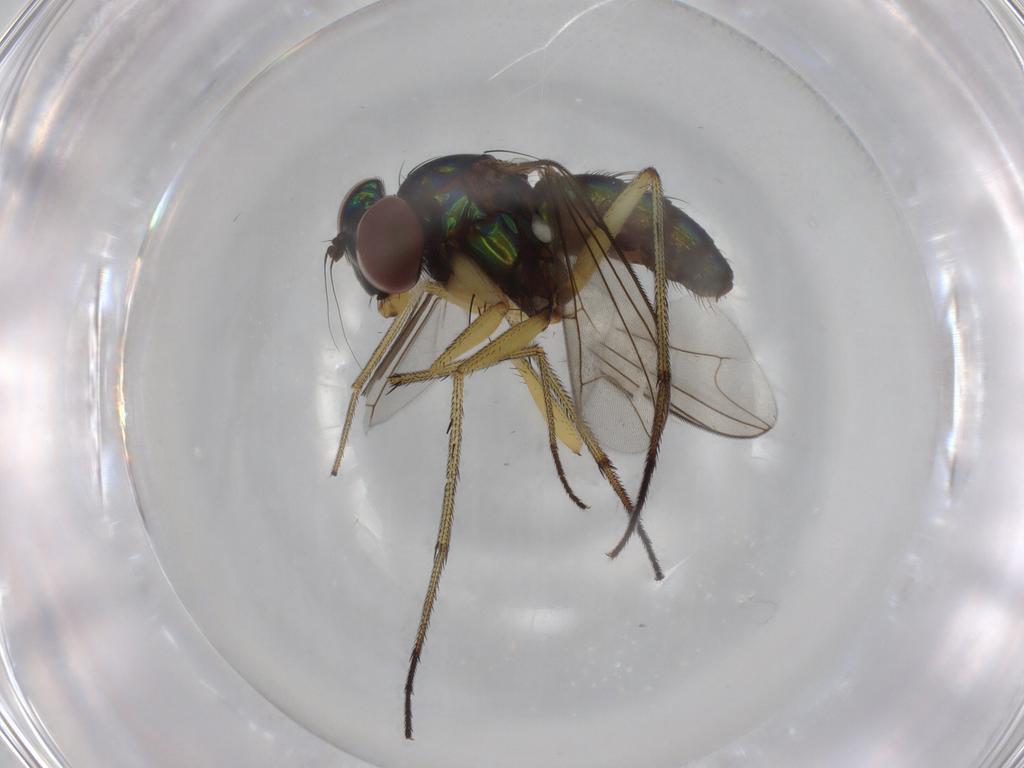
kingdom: Animalia
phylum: Arthropoda
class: Insecta
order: Diptera
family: Dolichopodidae
